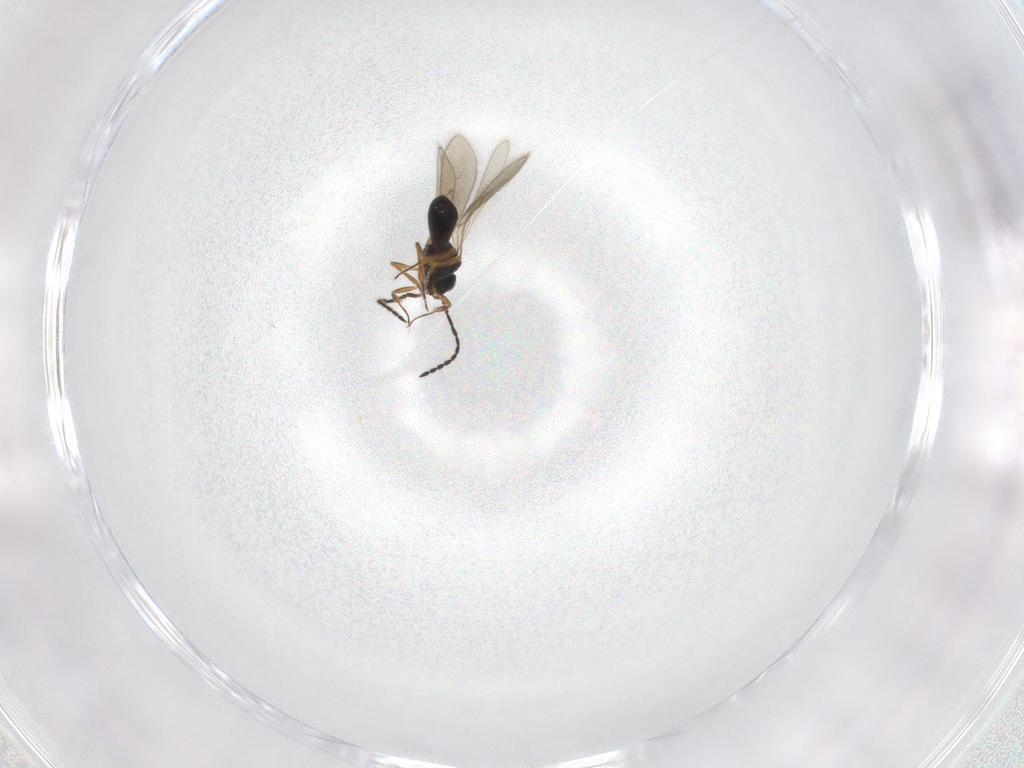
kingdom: Animalia
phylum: Arthropoda
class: Insecta
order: Hymenoptera
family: Scelionidae
